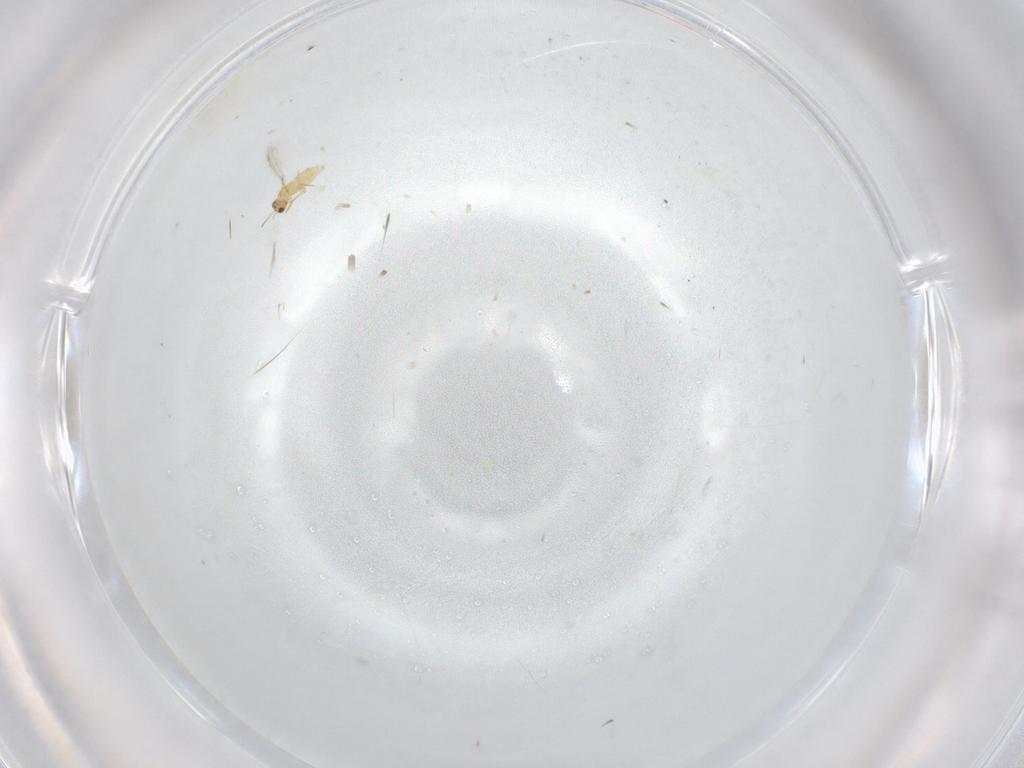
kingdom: Animalia
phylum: Arthropoda
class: Insecta
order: Hymenoptera
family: Mymaridae
